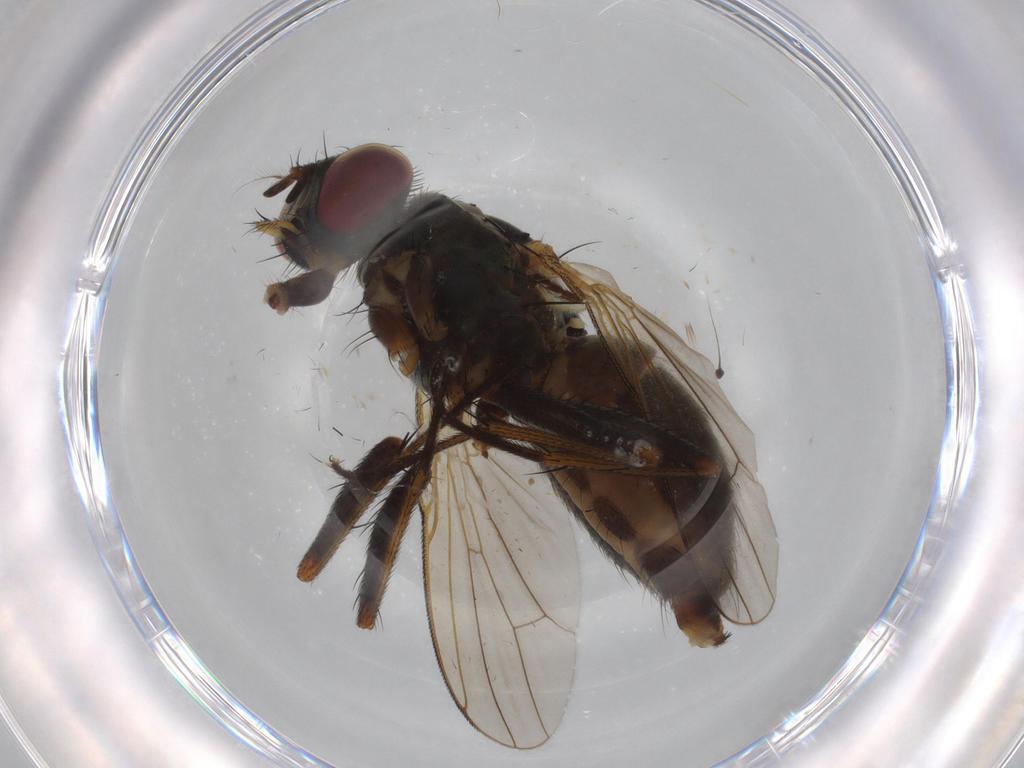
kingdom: Animalia
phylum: Arthropoda
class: Insecta
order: Diptera
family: Muscidae
